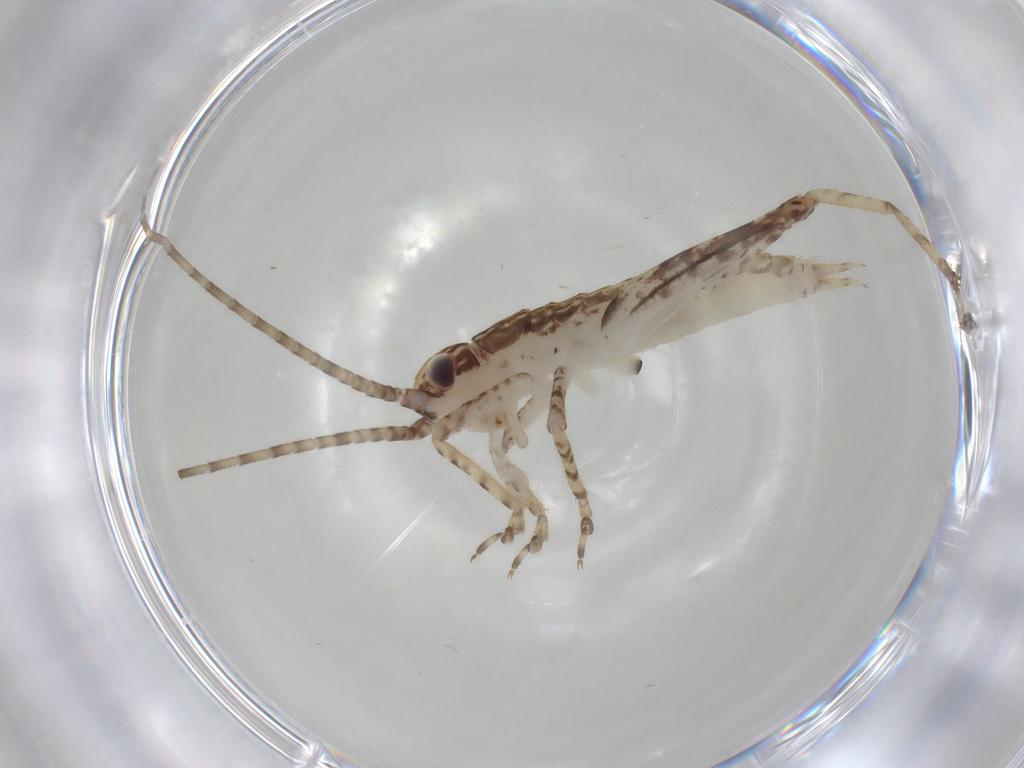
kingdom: Animalia
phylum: Arthropoda
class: Insecta
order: Orthoptera
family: Gryllidae
